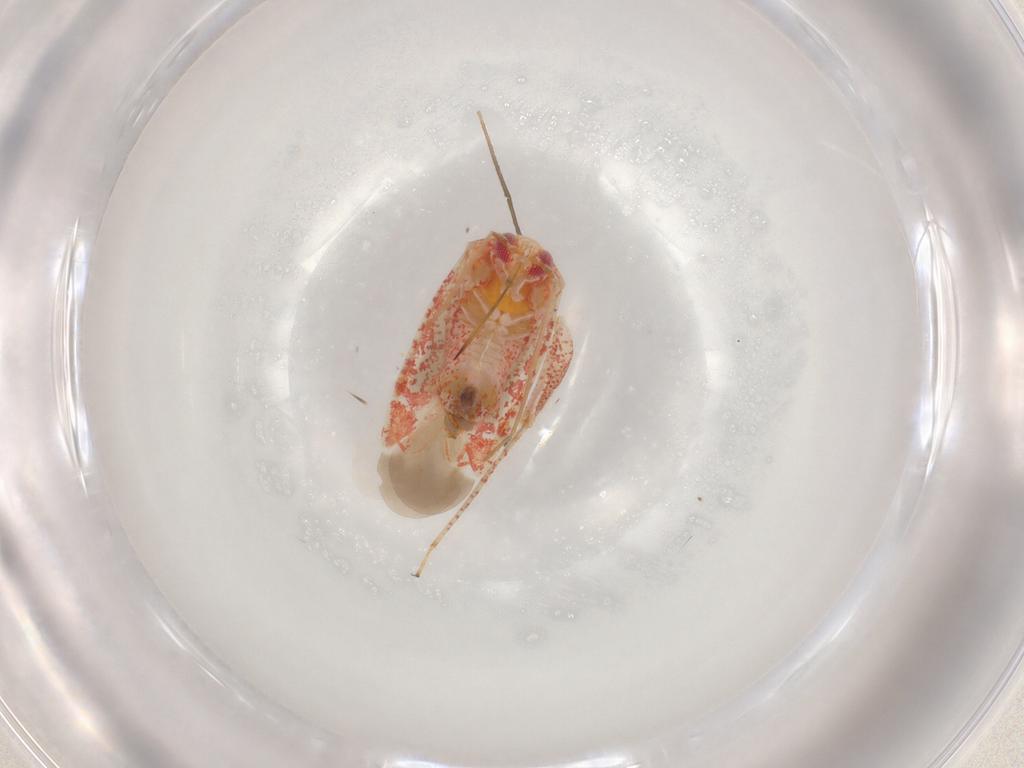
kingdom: Animalia
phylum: Arthropoda
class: Insecta
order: Hemiptera
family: Miridae
